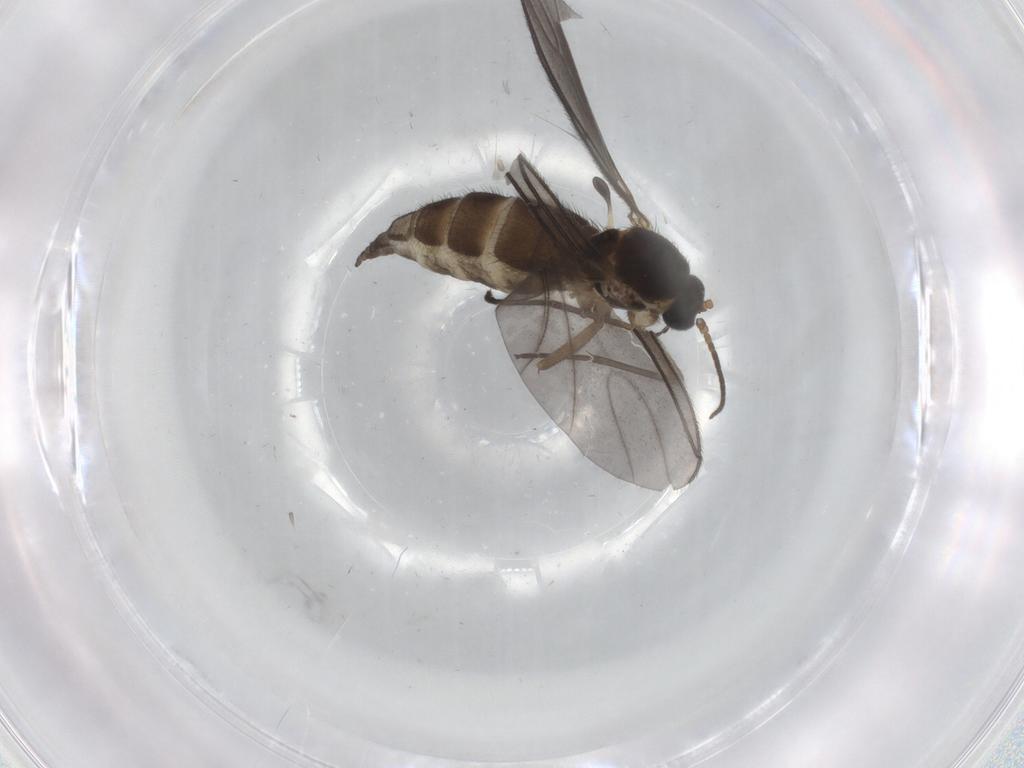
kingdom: Animalia
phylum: Arthropoda
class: Insecta
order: Diptera
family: Sciaridae
